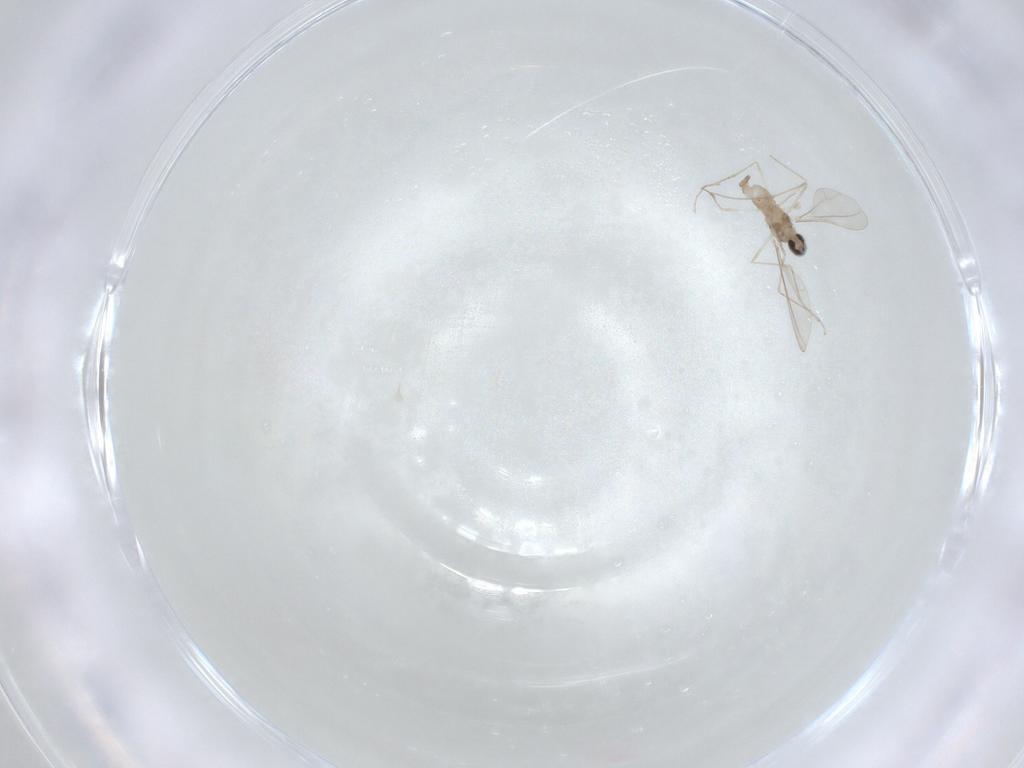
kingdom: Animalia
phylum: Arthropoda
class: Insecta
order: Diptera
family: Cecidomyiidae
